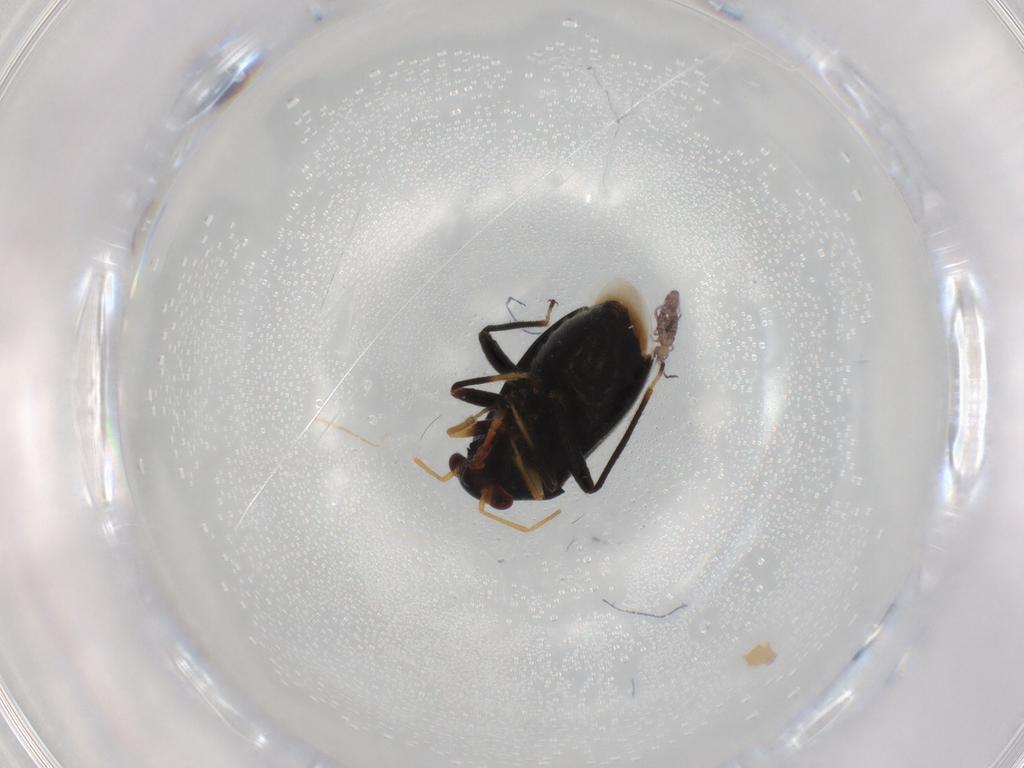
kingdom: Animalia
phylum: Arthropoda
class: Insecta
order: Hemiptera
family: Miridae
